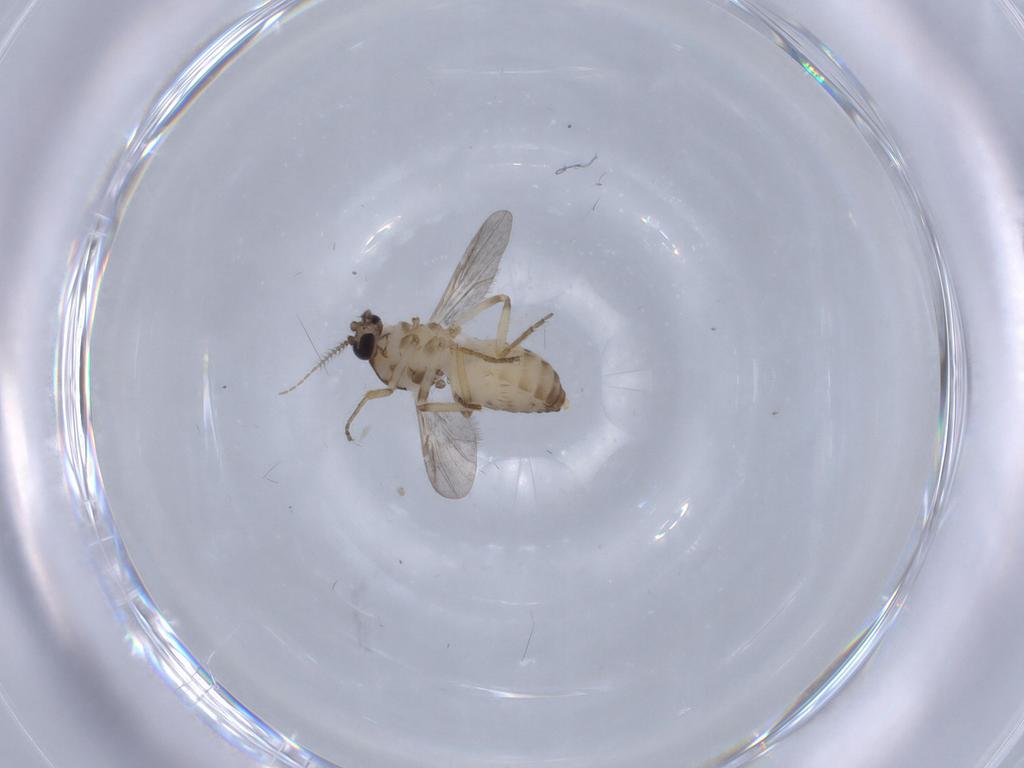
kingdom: Animalia
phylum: Arthropoda
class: Insecta
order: Diptera
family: Ceratopogonidae
